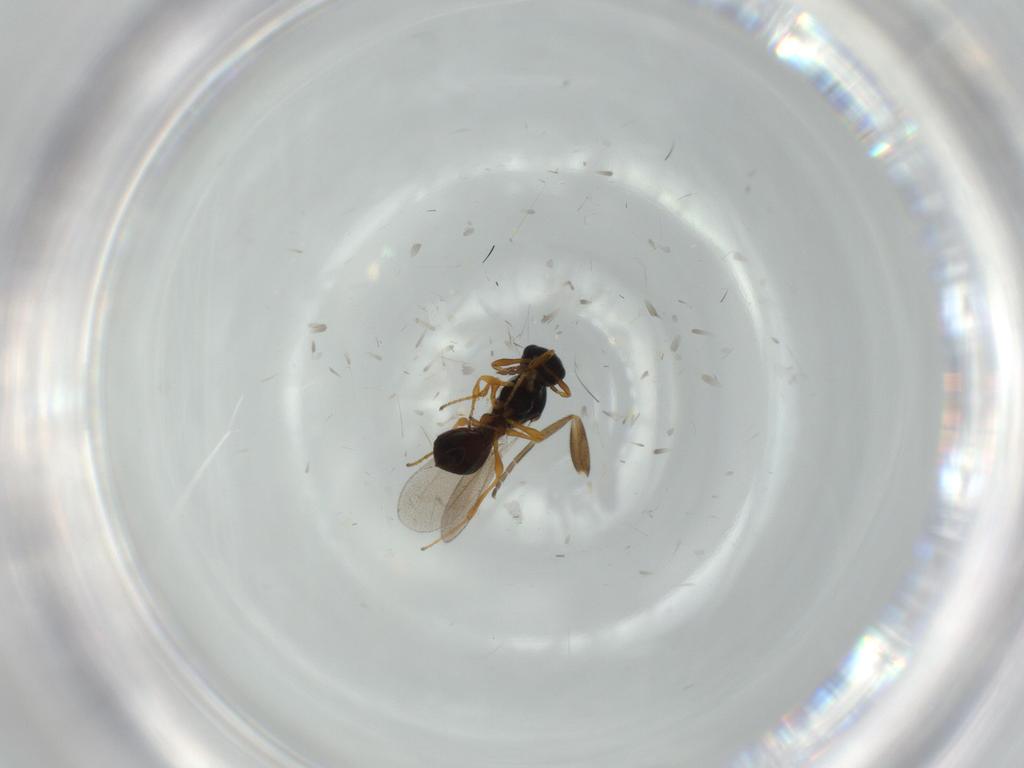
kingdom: Animalia
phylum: Arthropoda
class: Insecta
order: Diptera
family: Mythicomyiidae
